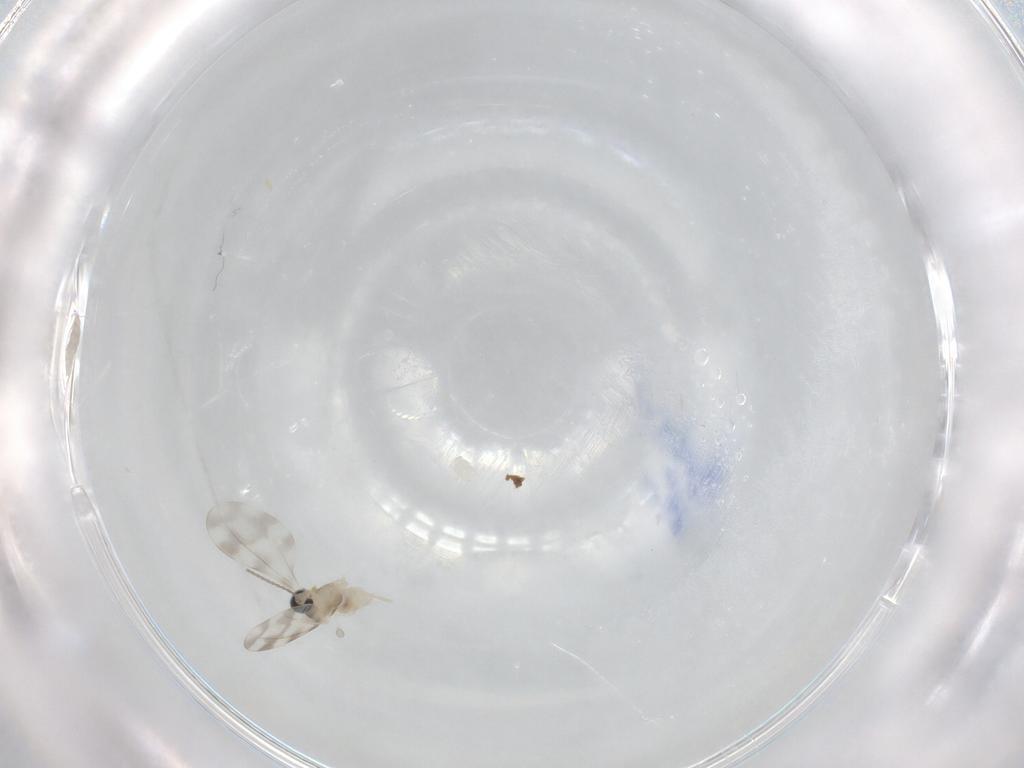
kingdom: Animalia
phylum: Arthropoda
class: Insecta
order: Diptera
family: Cecidomyiidae
